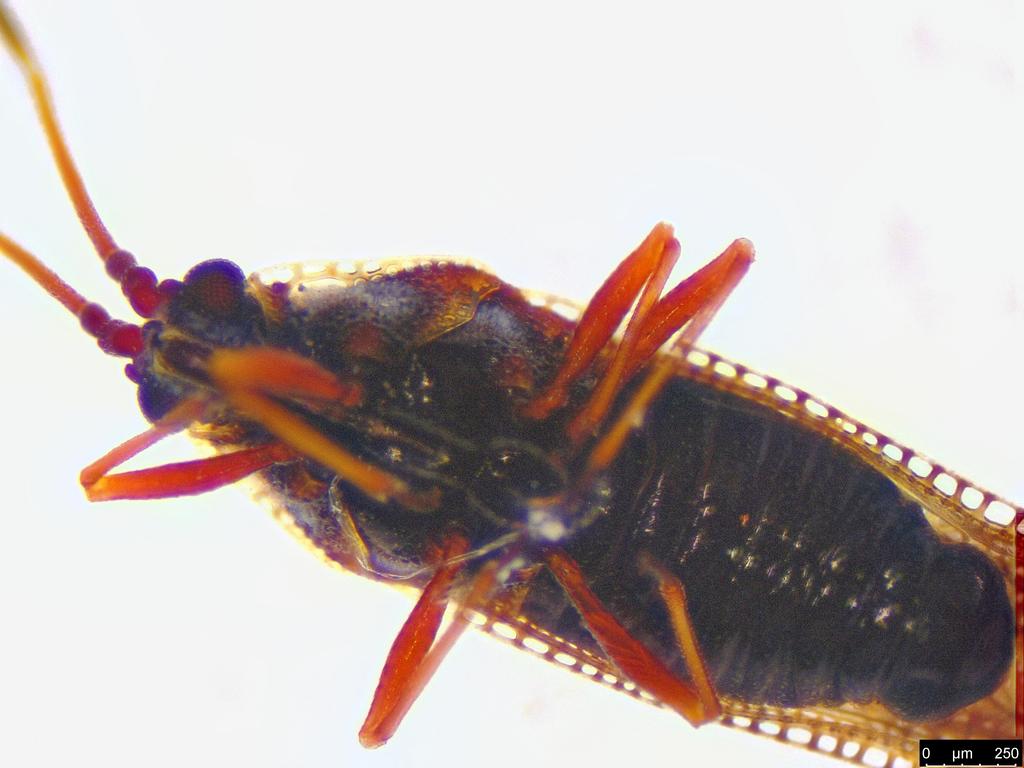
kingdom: Animalia
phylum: Arthropoda
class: Insecta
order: Hemiptera
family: Tingidae
